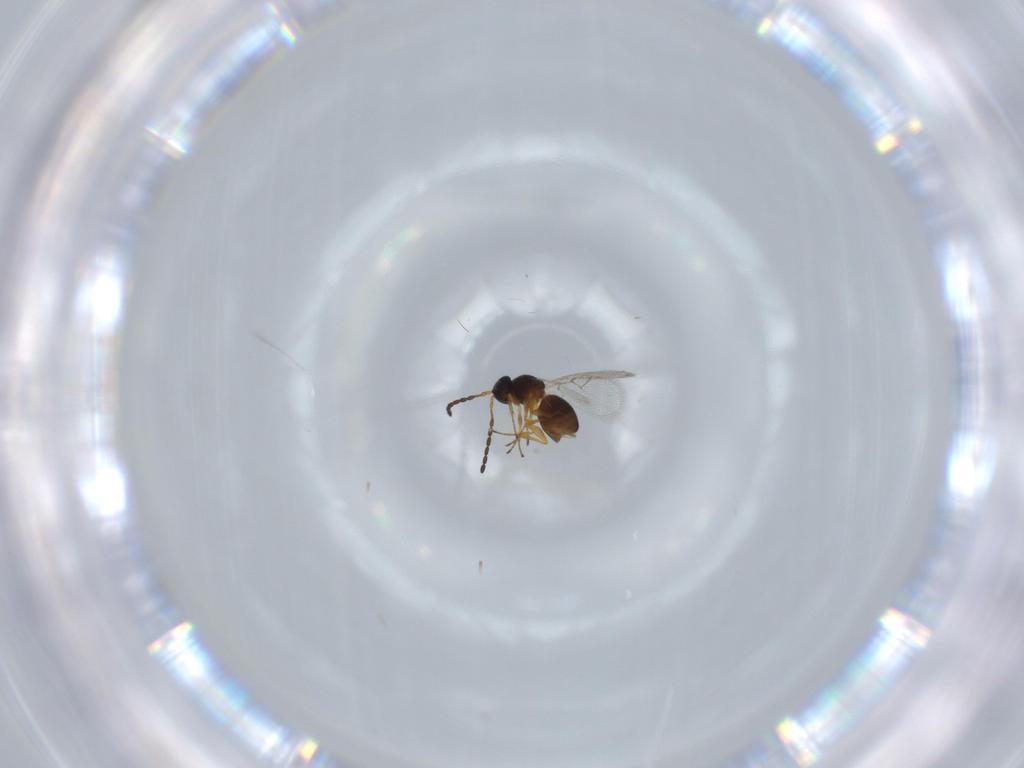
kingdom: Animalia
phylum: Arthropoda
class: Insecta
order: Hymenoptera
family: Figitidae
